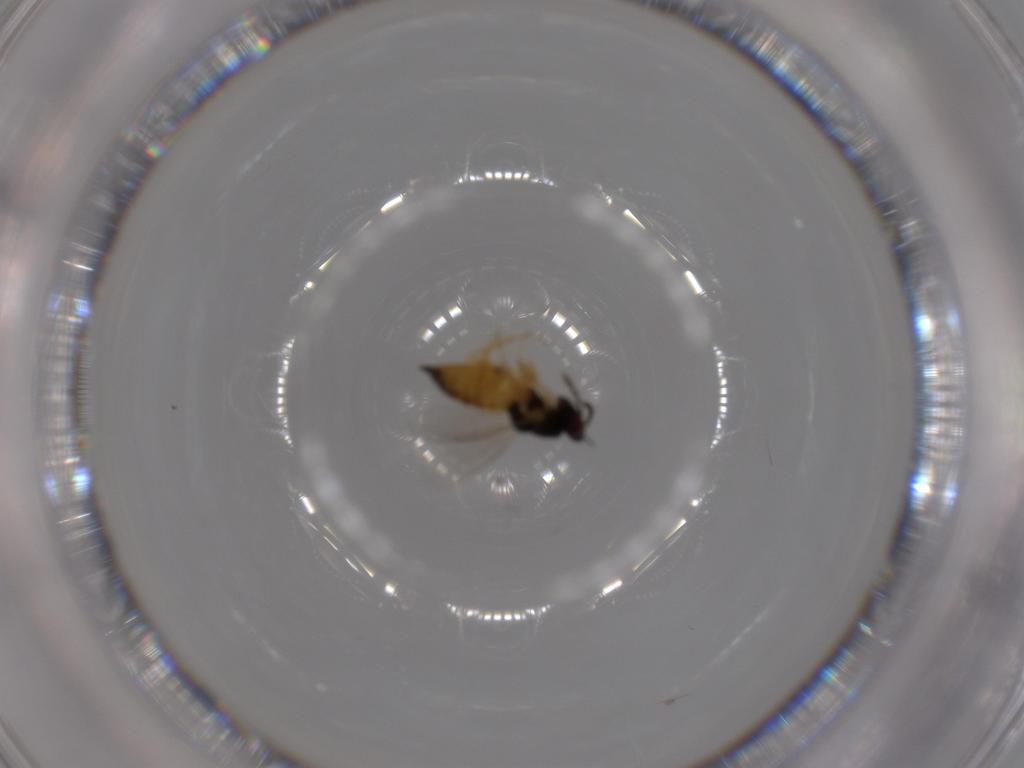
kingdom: Animalia
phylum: Arthropoda
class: Insecta
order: Hymenoptera
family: Eulophidae
